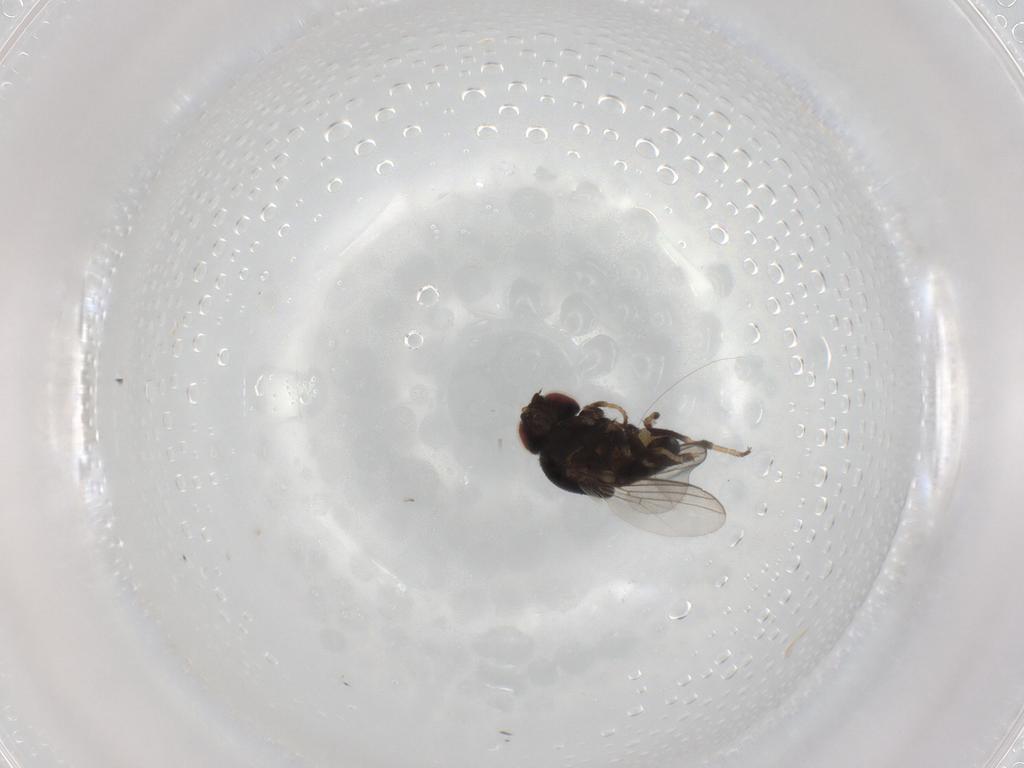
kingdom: Animalia
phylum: Arthropoda
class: Insecta
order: Diptera
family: Chloropidae
